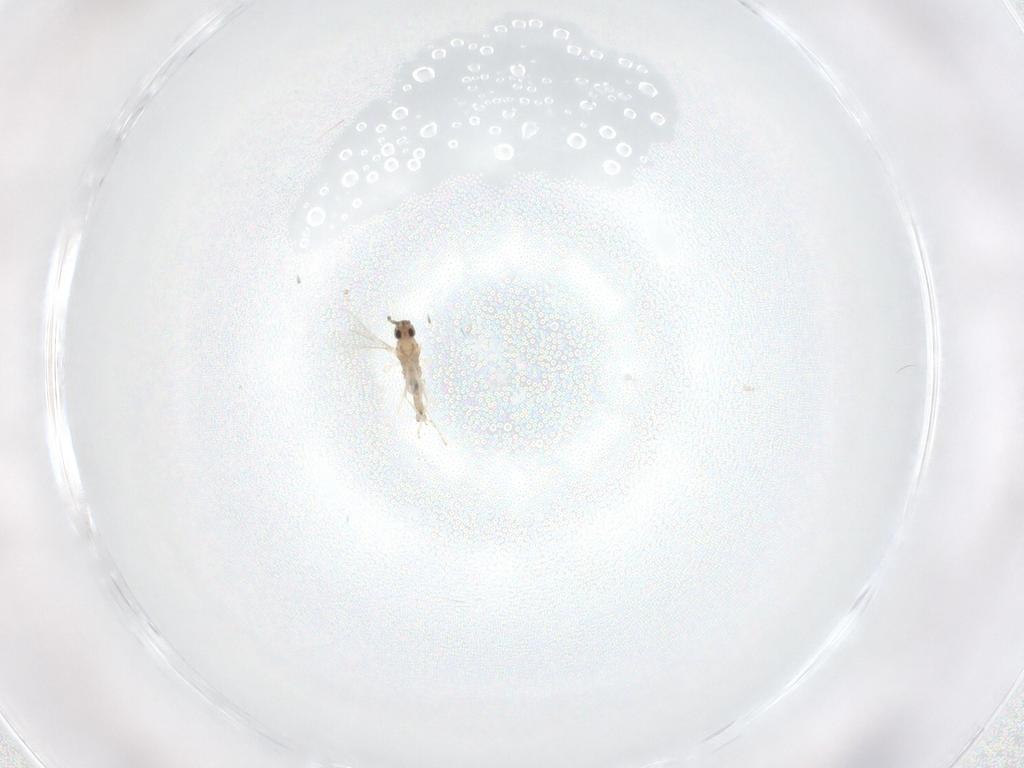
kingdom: Animalia
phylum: Arthropoda
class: Insecta
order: Diptera
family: Cecidomyiidae
